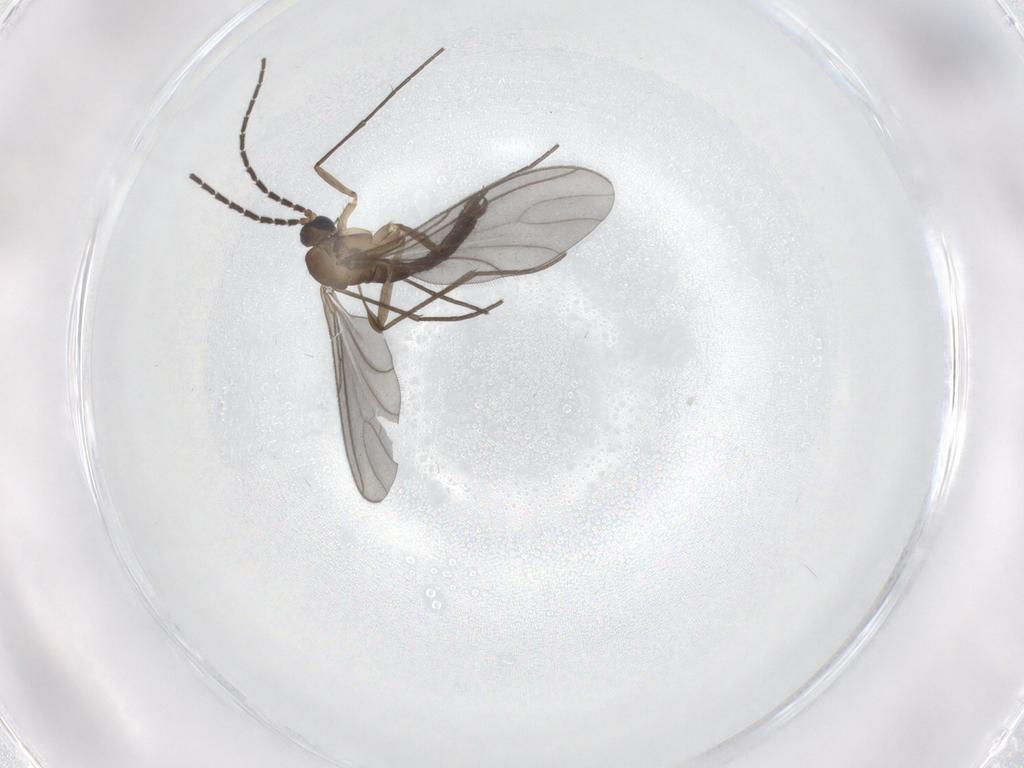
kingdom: Animalia
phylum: Arthropoda
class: Insecta
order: Diptera
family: Sciaridae
